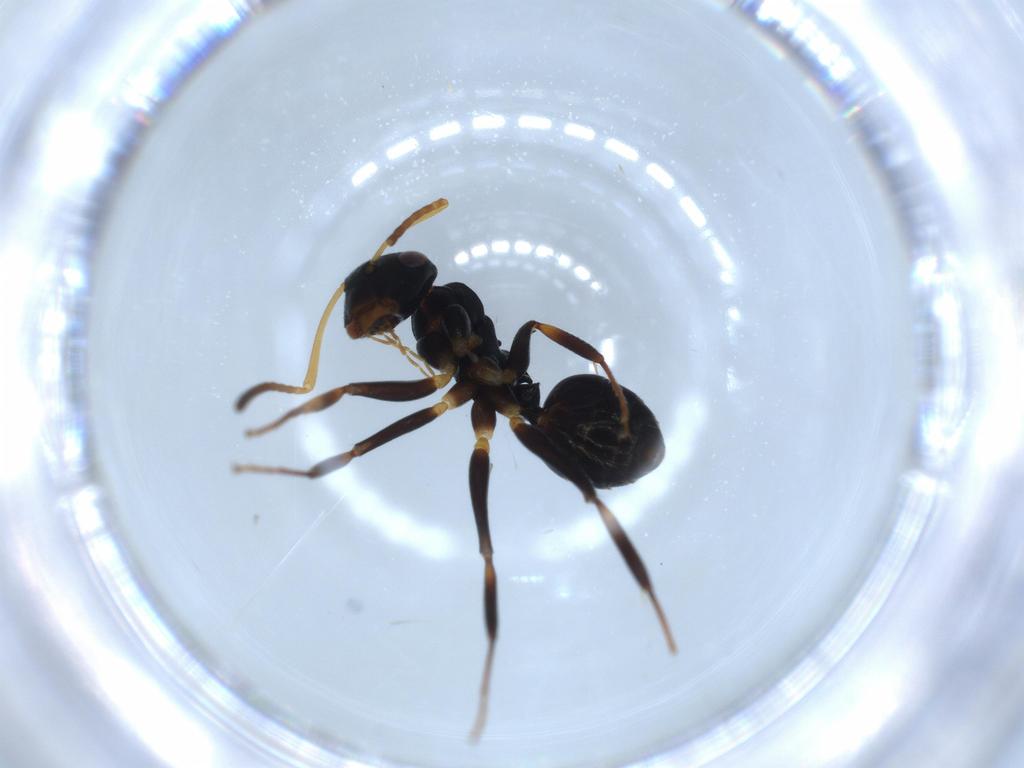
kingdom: Animalia
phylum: Arthropoda
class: Insecta
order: Hymenoptera
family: Formicidae
